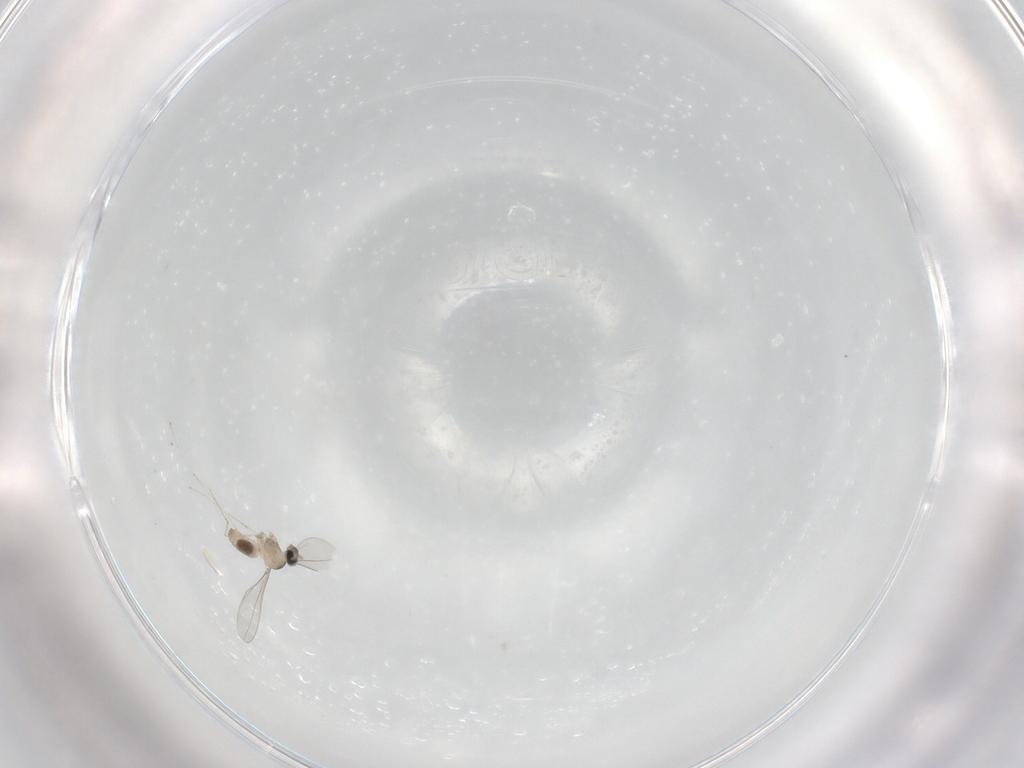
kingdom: Animalia
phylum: Arthropoda
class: Insecta
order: Diptera
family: Cecidomyiidae
